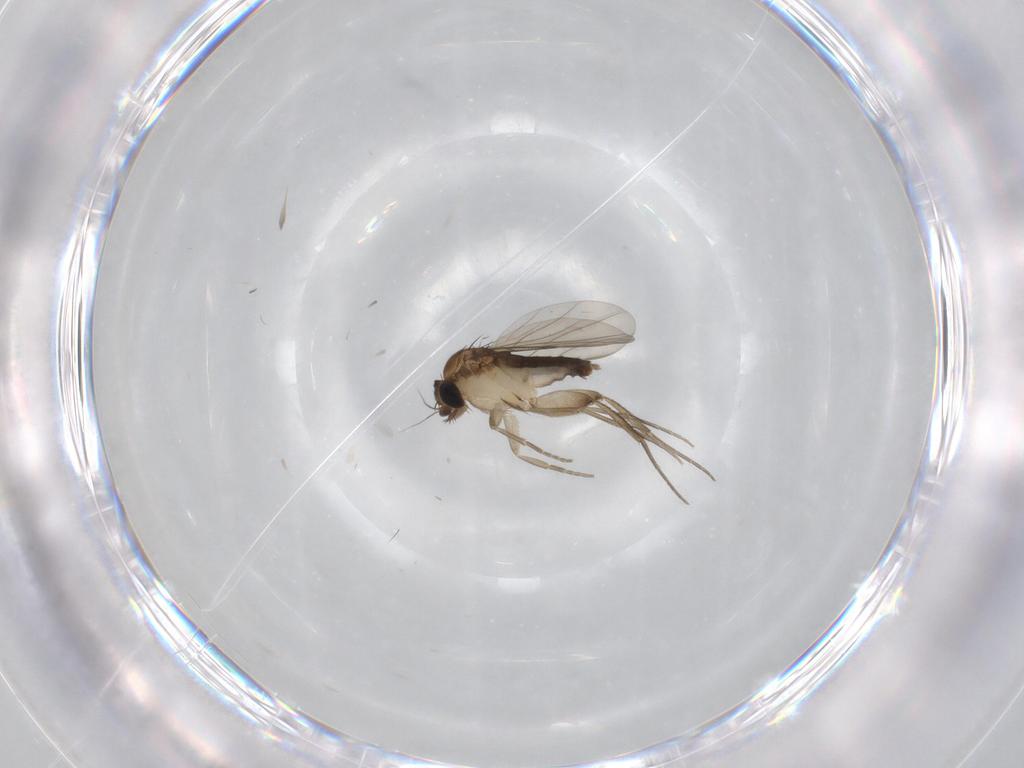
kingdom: Animalia
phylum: Arthropoda
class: Insecta
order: Diptera
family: Phoridae
